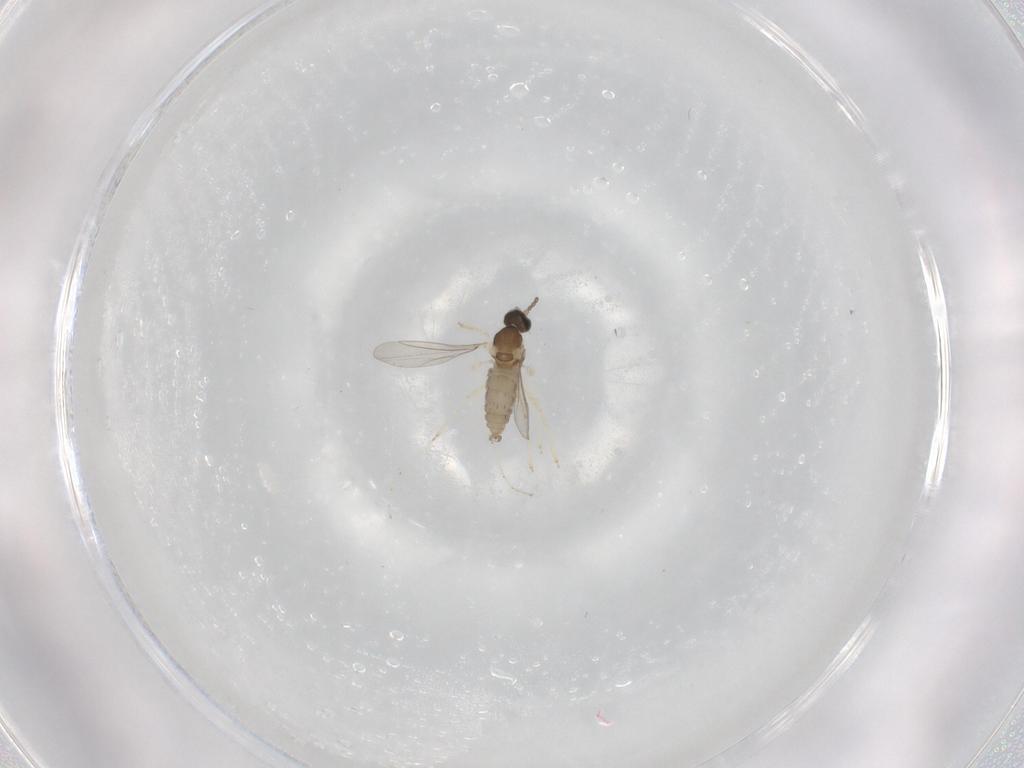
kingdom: Animalia
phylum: Arthropoda
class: Insecta
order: Diptera
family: Cecidomyiidae
